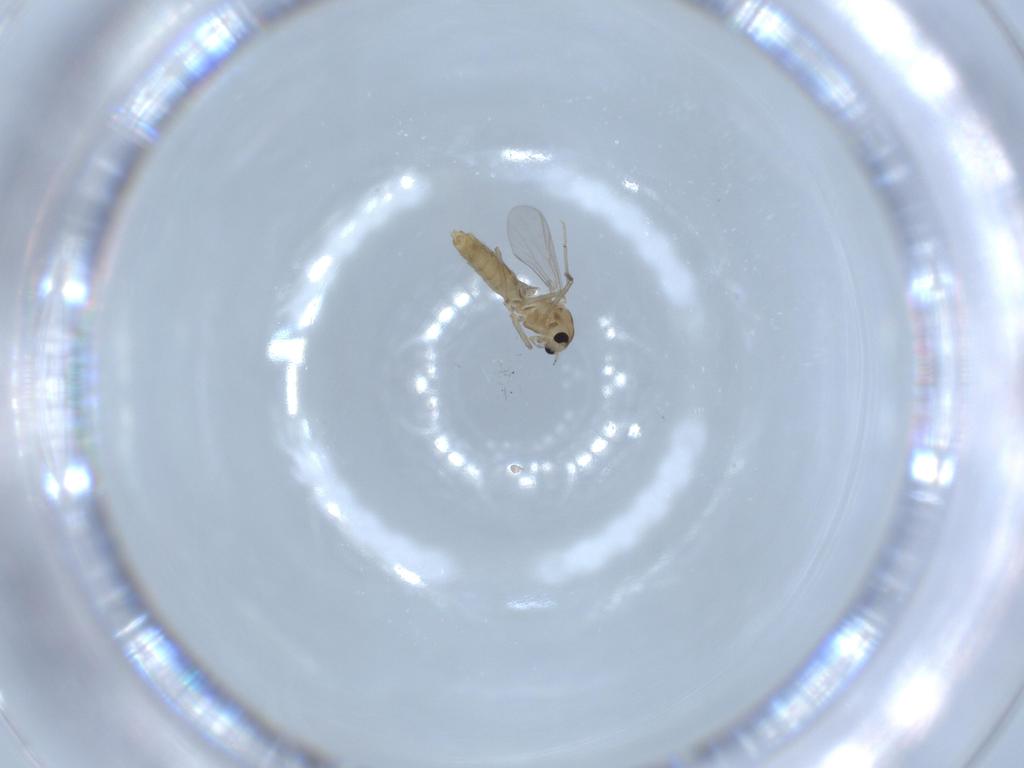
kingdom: Animalia
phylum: Arthropoda
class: Insecta
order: Diptera
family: Chironomidae
